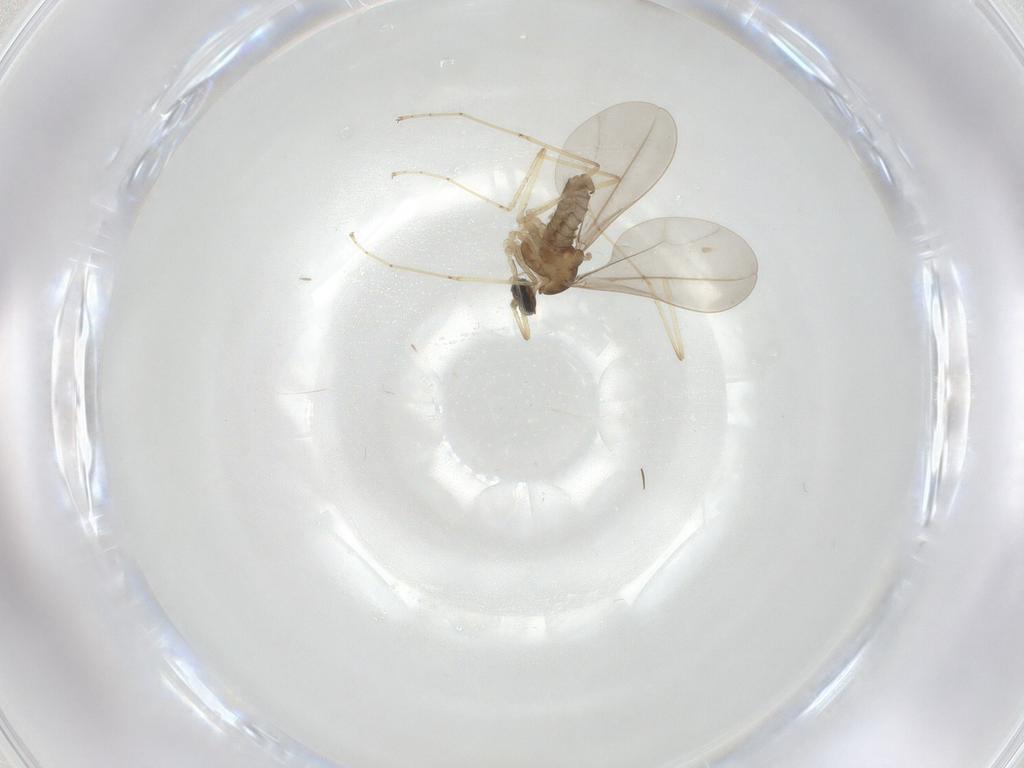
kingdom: Animalia
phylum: Arthropoda
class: Insecta
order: Diptera
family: Cecidomyiidae
